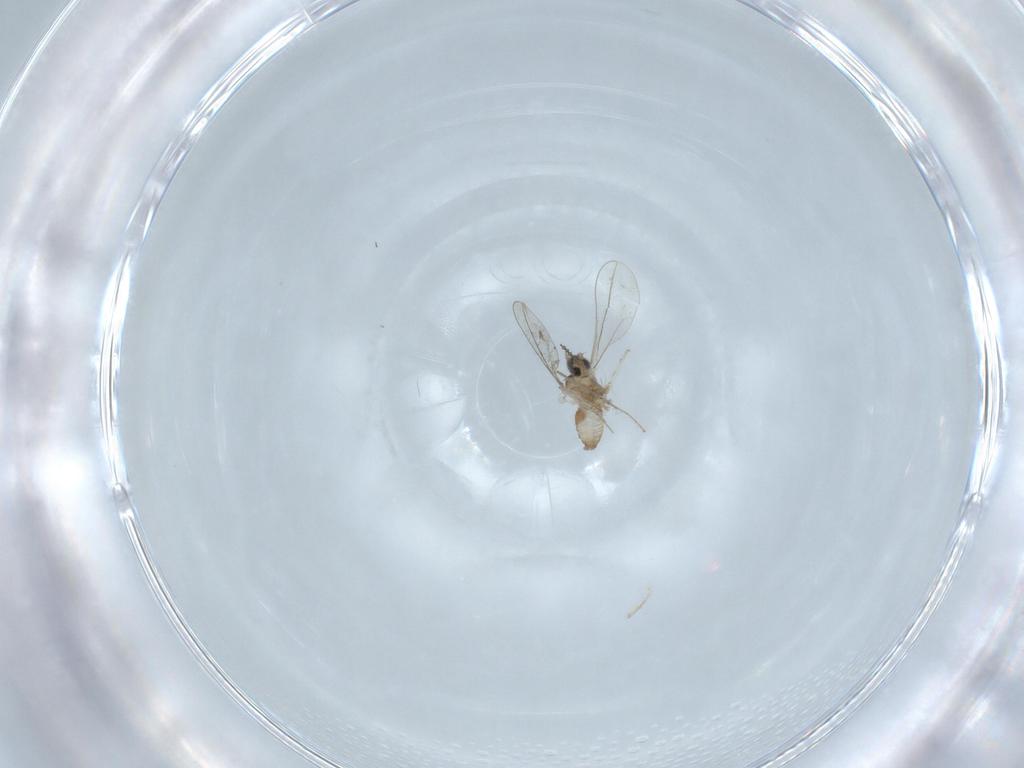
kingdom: Animalia
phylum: Arthropoda
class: Insecta
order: Diptera
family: Cecidomyiidae
